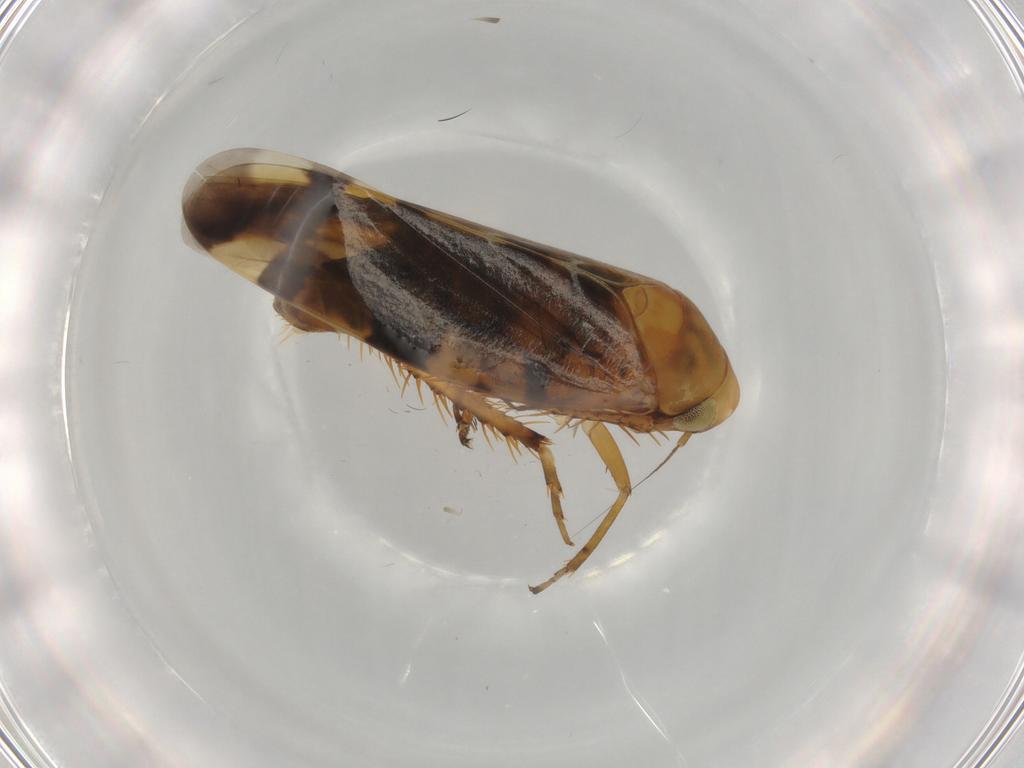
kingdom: Animalia
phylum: Arthropoda
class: Insecta
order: Hemiptera
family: Cicadellidae
